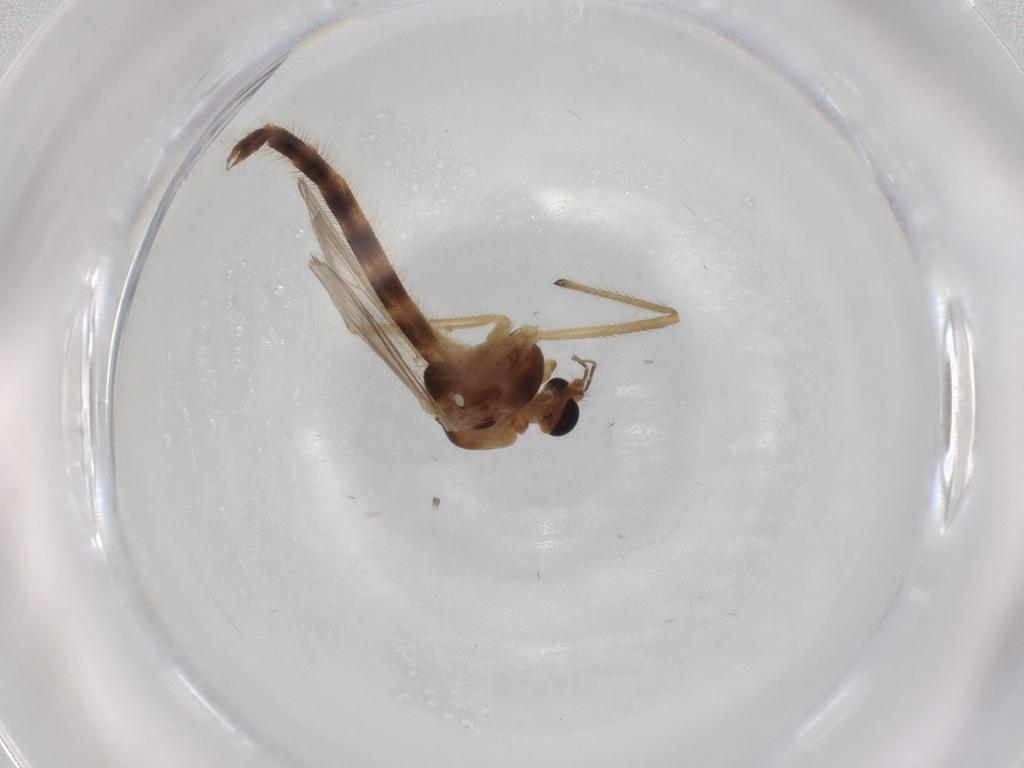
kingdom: Animalia
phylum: Arthropoda
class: Insecta
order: Diptera
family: Chironomidae
